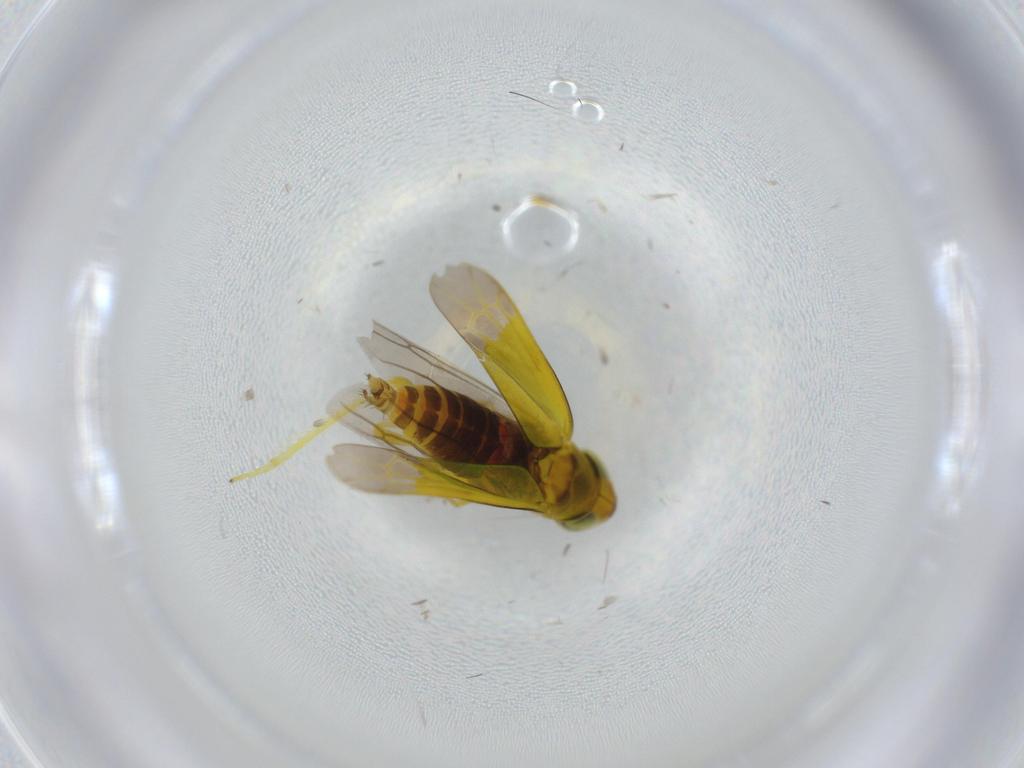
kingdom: Animalia
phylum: Arthropoda
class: Insecta
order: Hemiptera
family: Cicadellidae
